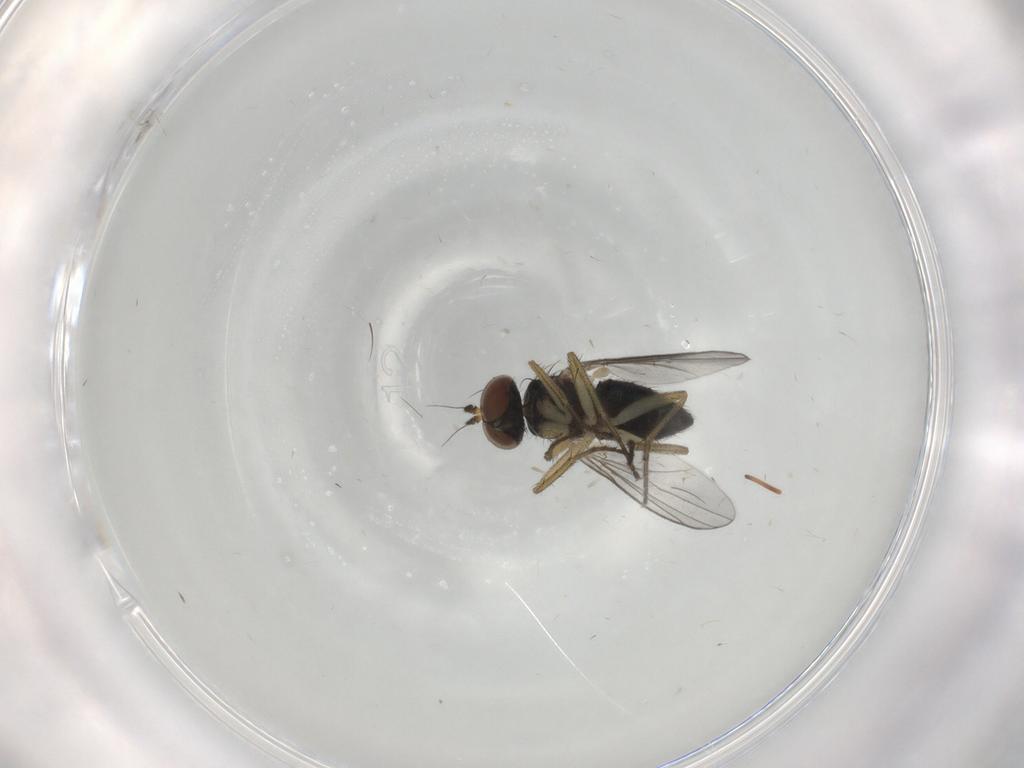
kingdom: Animalia
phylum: Arthropoda
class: Insecta
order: Diptera
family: Dolichopodidae
